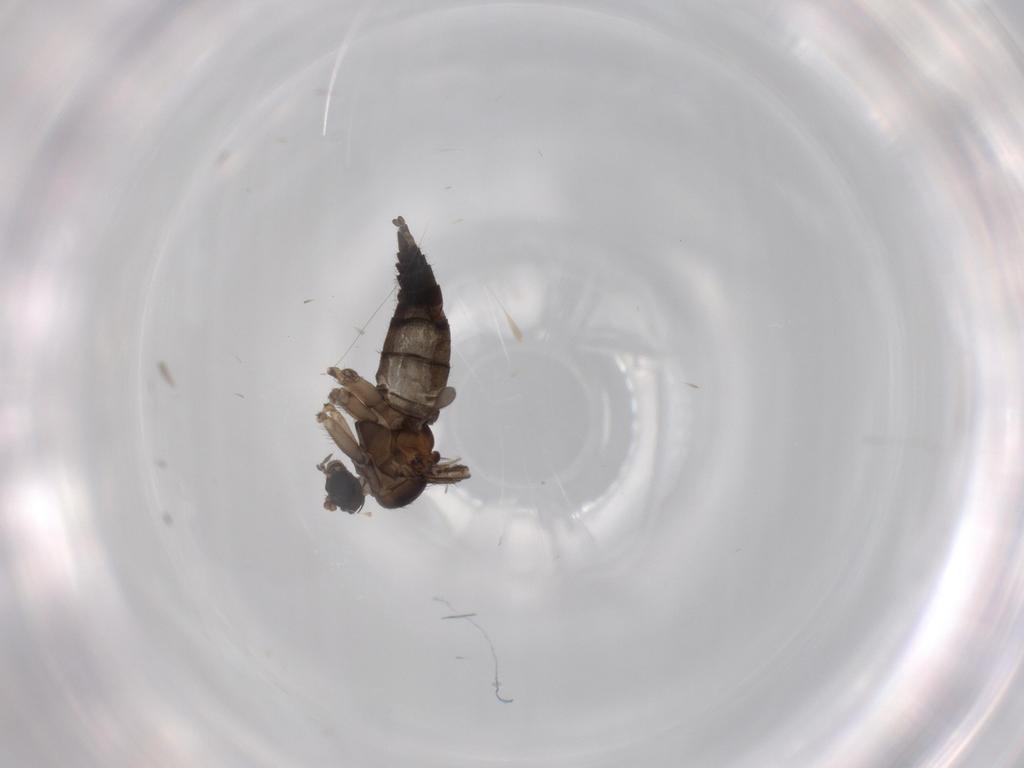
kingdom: Animalia
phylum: Arthropoda
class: Insecta
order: Diptera
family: Sciaridae
